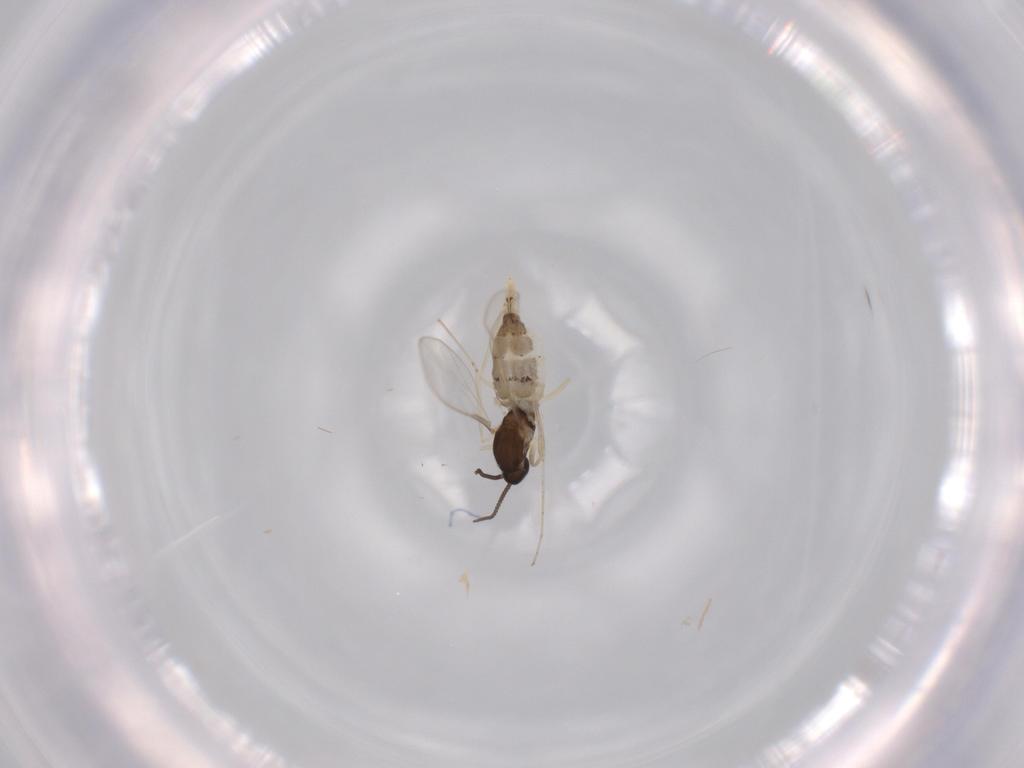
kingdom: Animalia
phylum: Arthropoda
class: Insecta
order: Diptera
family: Cecidomyiidae
